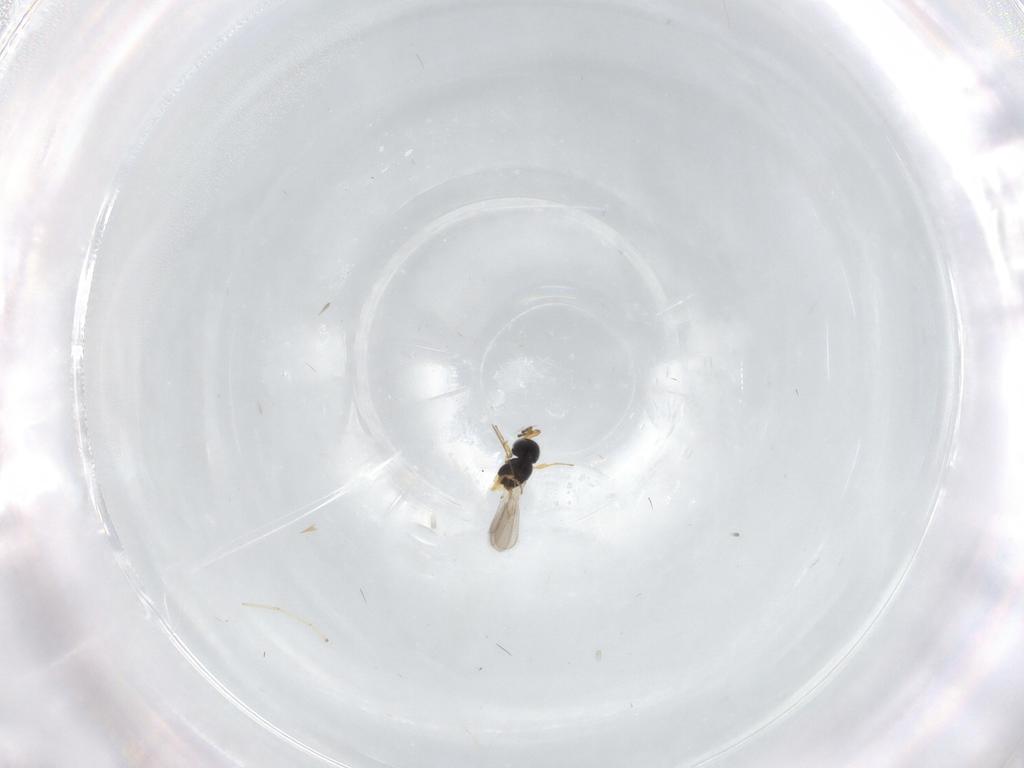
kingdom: Animalia
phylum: Arthropoda
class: Insecta
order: Hymenoptera
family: Scelionidae
